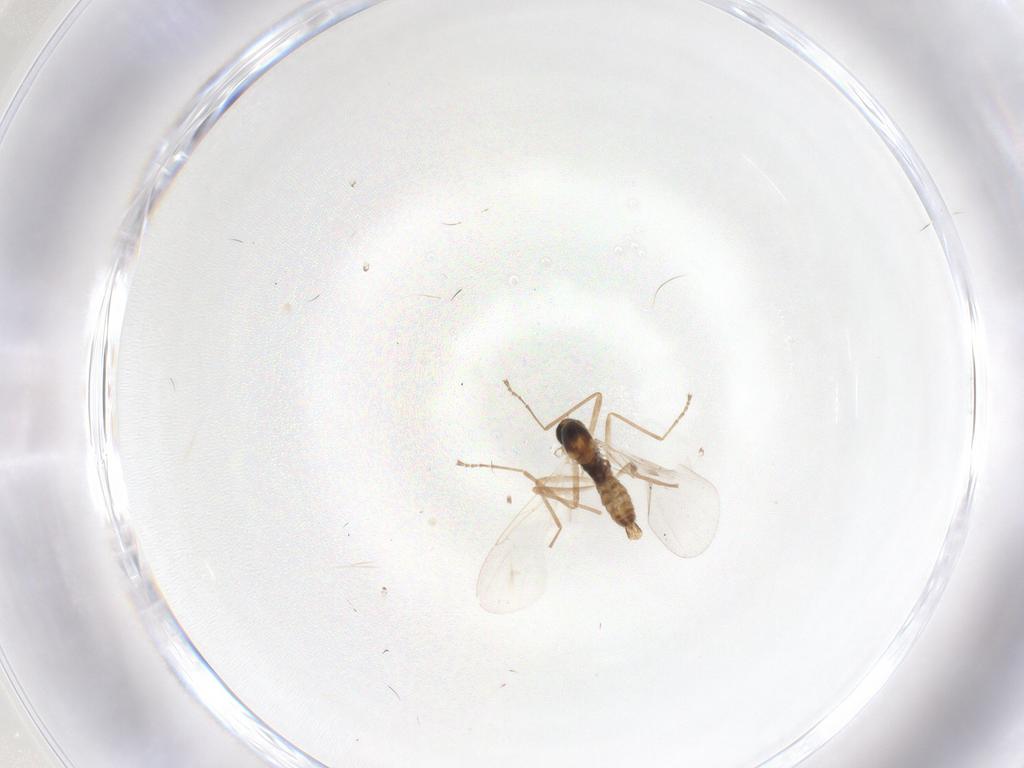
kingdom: Animalia
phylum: Arthropoda
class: Insecta
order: Diptera
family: Cecidomyiidae
